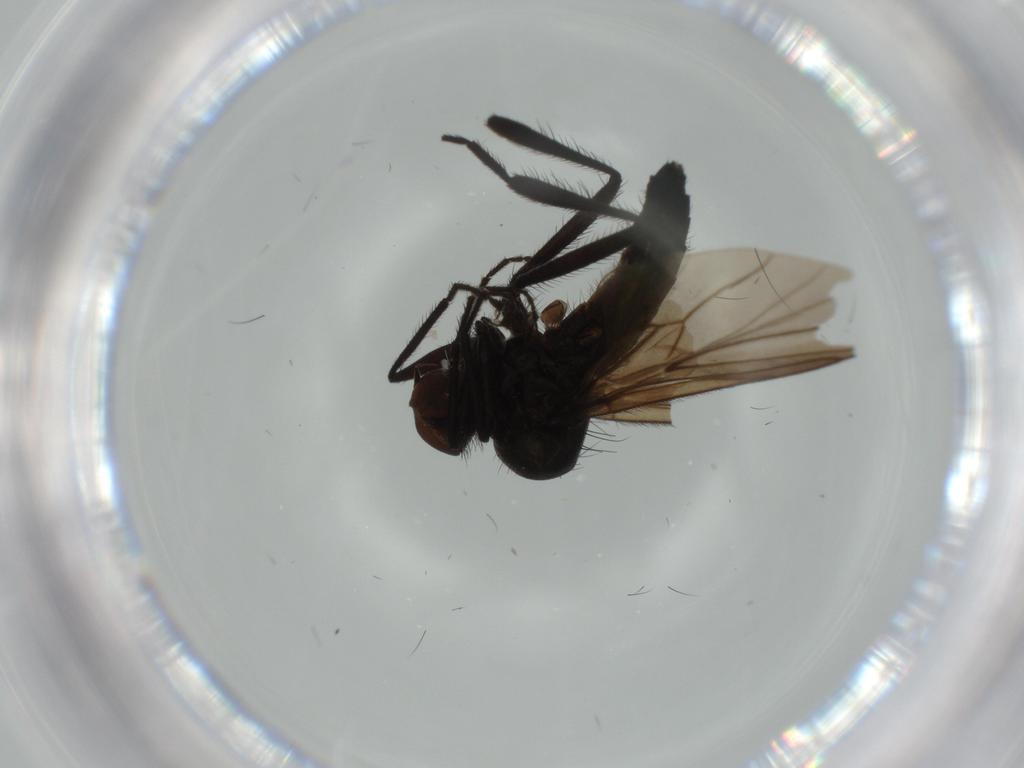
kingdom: Animalia
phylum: Arthropoda
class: Insecta
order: Diptera
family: Hybotidae
